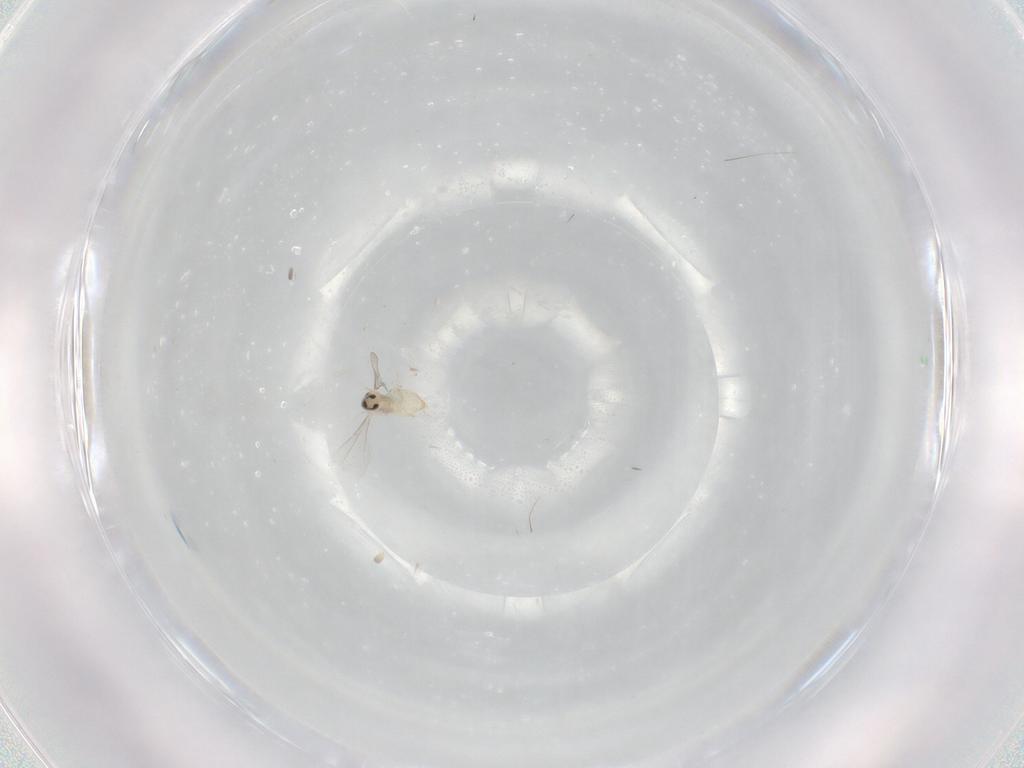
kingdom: Animalia
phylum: Arthropoda
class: Insecta
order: Diptera
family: Cecidomyiidae
